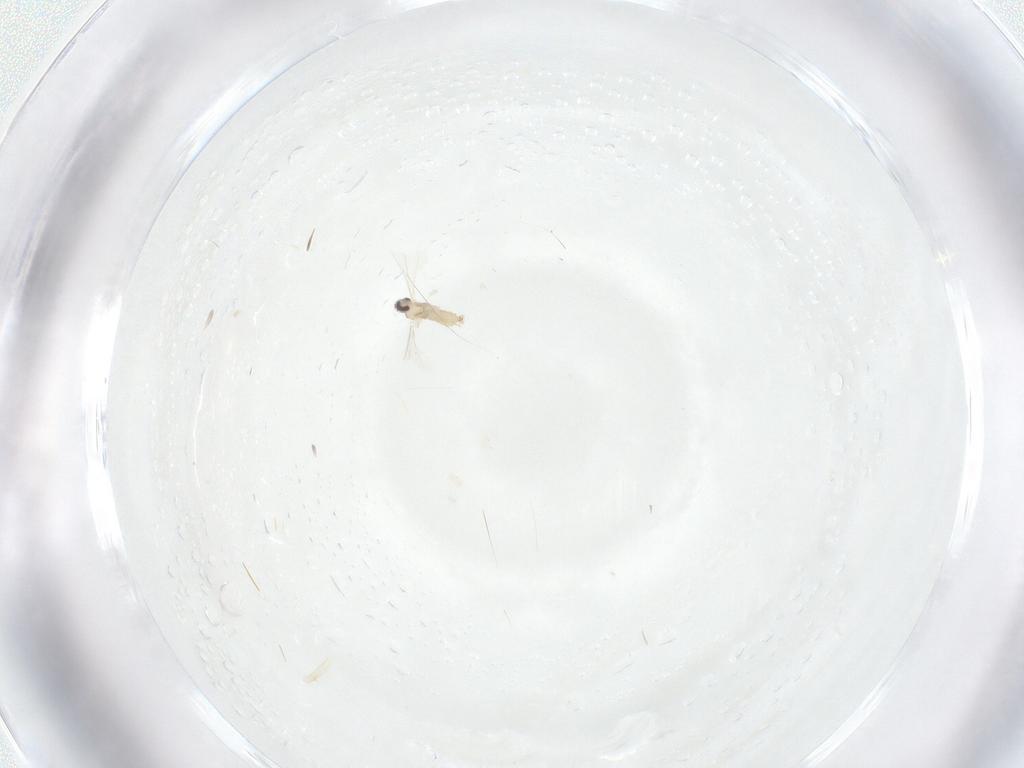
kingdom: Animalia
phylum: Arthropoda
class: Insecta
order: Diptera
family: Cecidomyiidae
